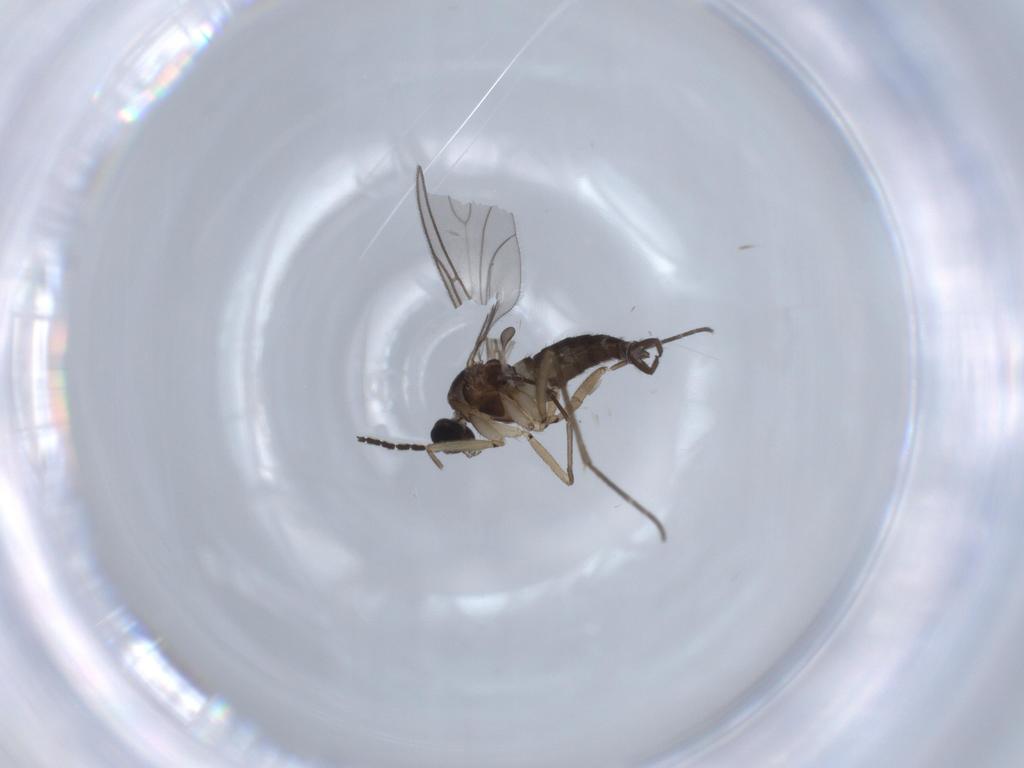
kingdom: Animalia
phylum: Arthropoda
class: Insecta
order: Diptera
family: Sciaridae
